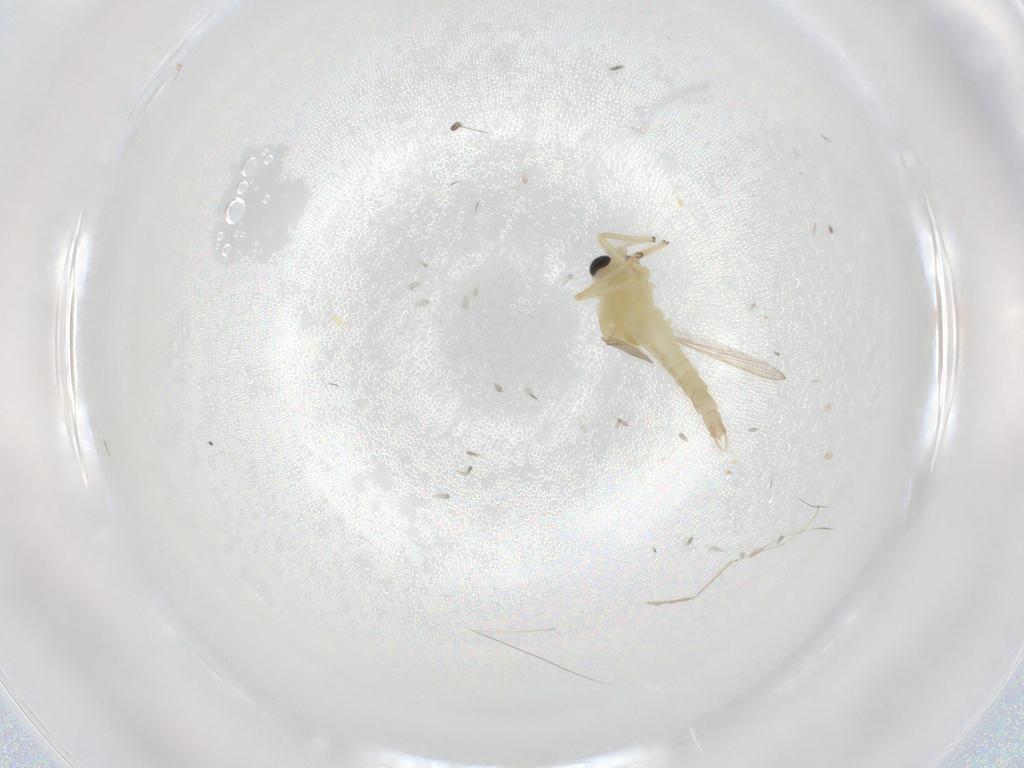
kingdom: Animalia
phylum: Arthropoda
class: Insecta
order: Diptera
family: Chironomidae
